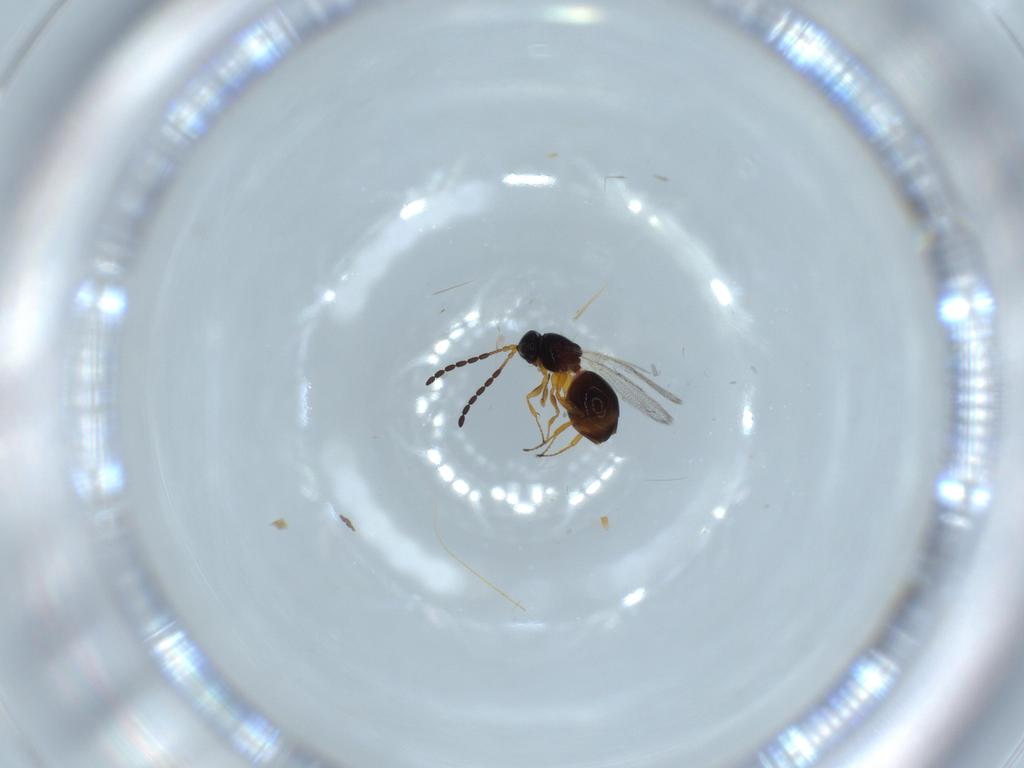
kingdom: Animalia
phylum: Arthropoda
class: Insecta
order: Hymenoptera
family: Figitidae
